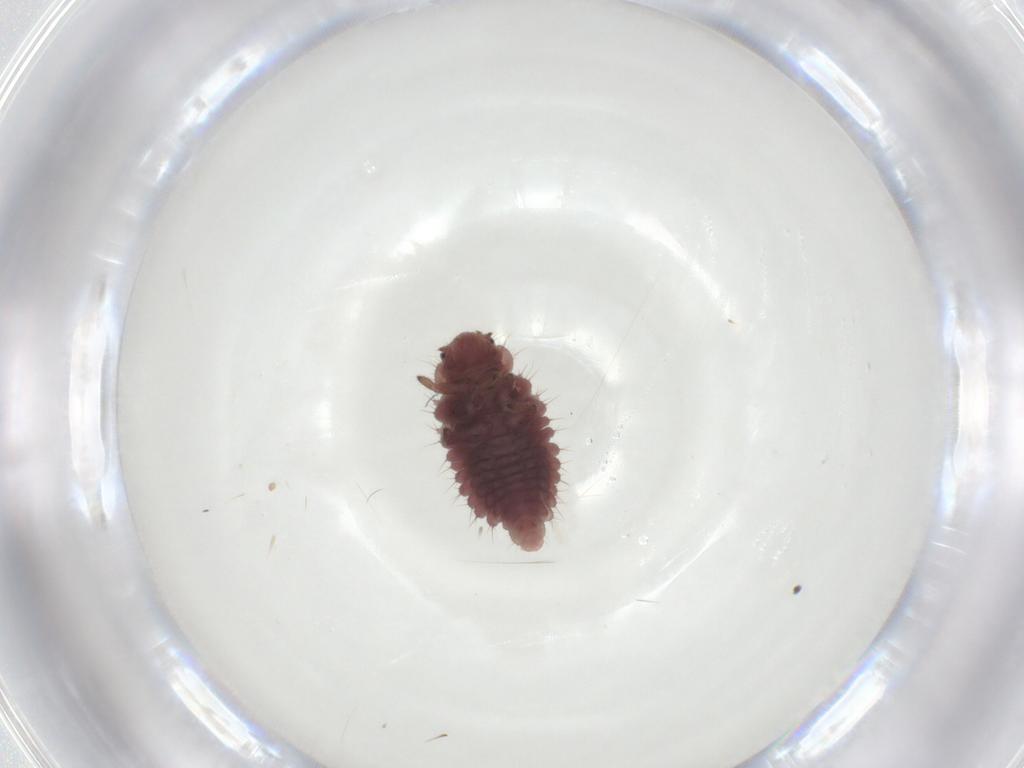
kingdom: Animalia
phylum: Arthropoda
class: Insecta
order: Coleoptera
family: Coccinellidae
